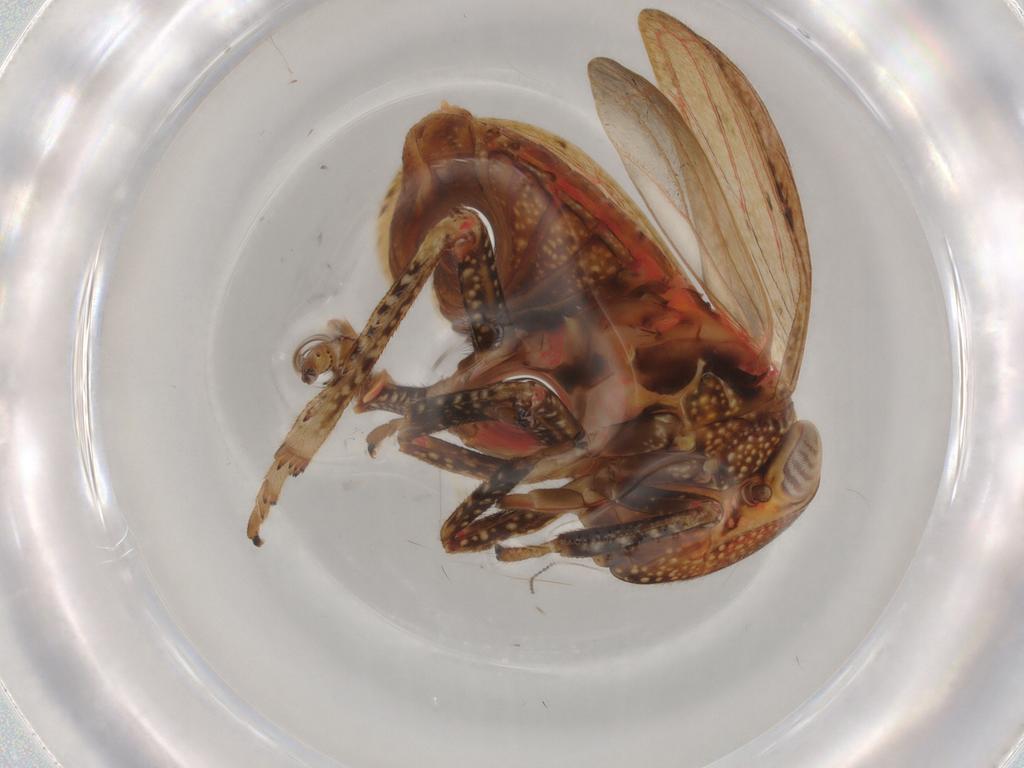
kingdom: Animalia
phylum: Arthropoda
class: Insecta
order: Hemiptera
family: Tropiduchidae
